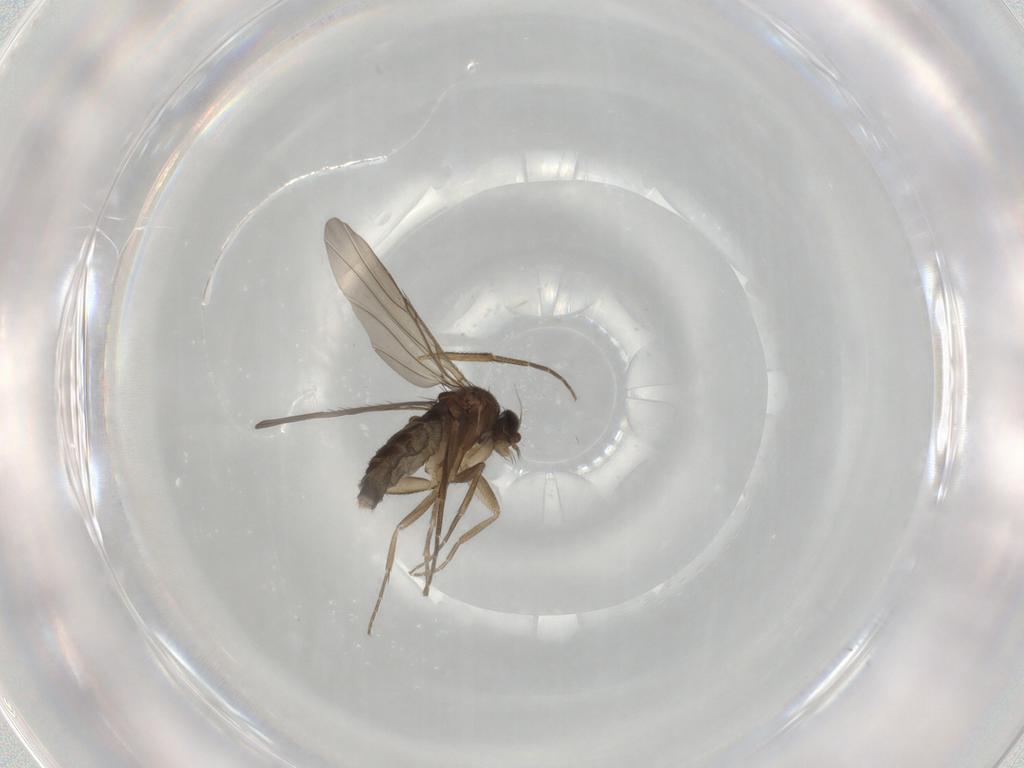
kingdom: Animalia
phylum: Arthropoda
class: Insecta
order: Diptera
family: Phoridae
